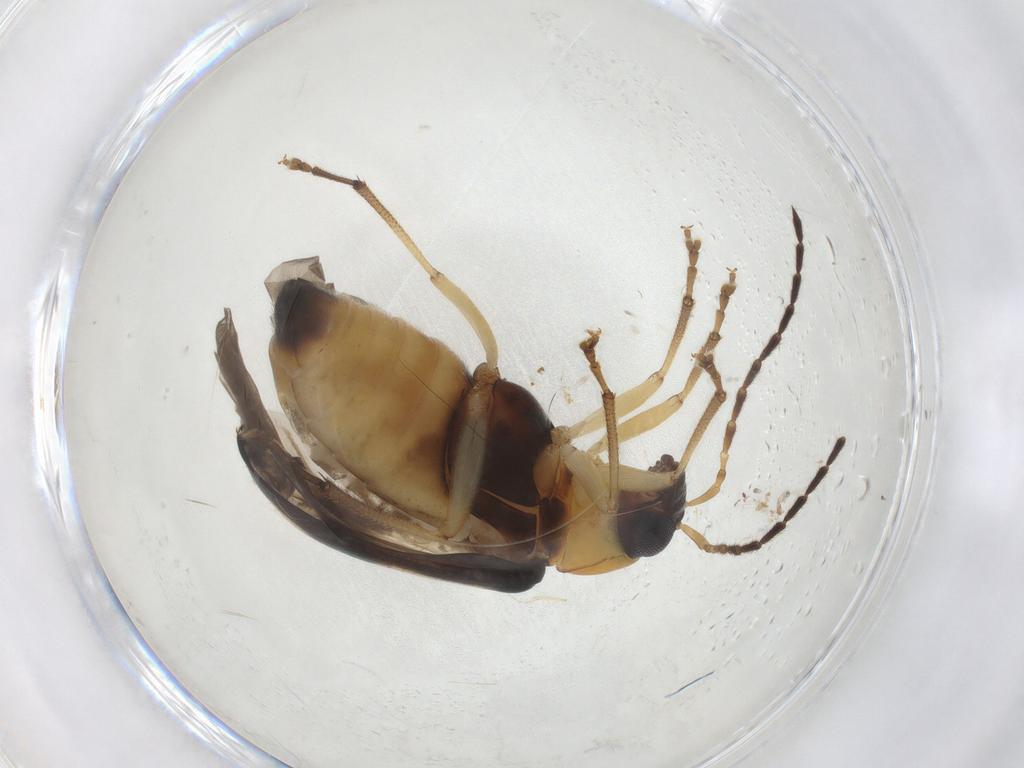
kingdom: Animalia
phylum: Arthropoda
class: Insecta
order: Coleoptera
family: Chrysomelidae
